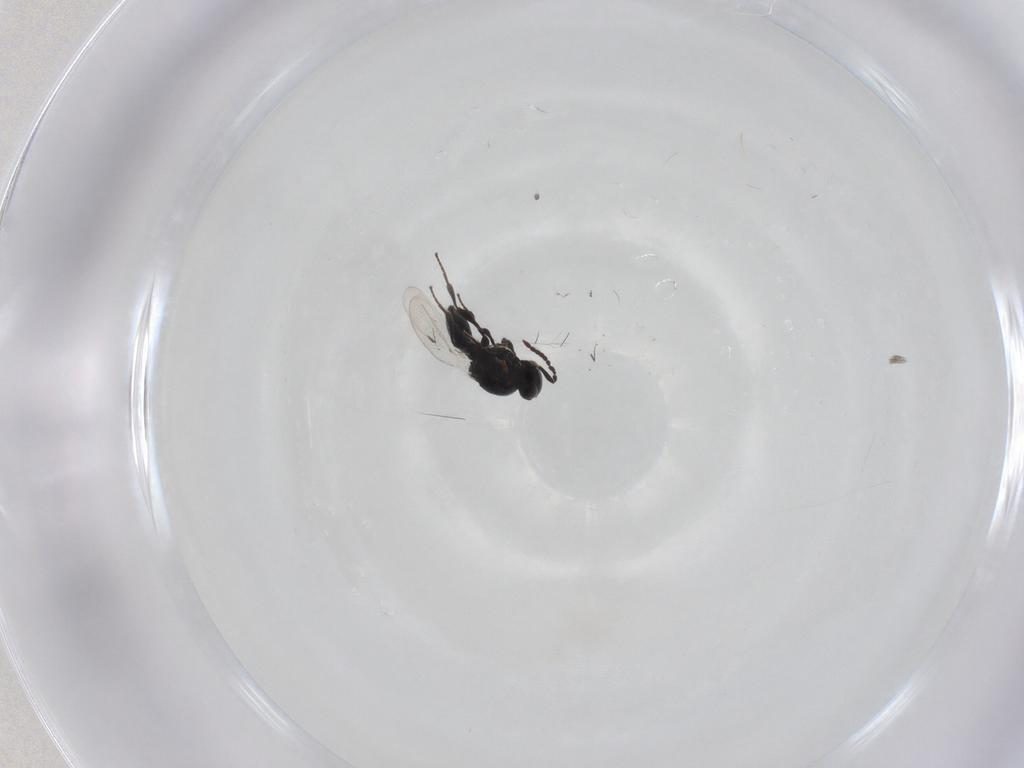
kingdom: Animalia
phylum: Arthropoda
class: Insecta
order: Hymenoptera
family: Platygastridae
